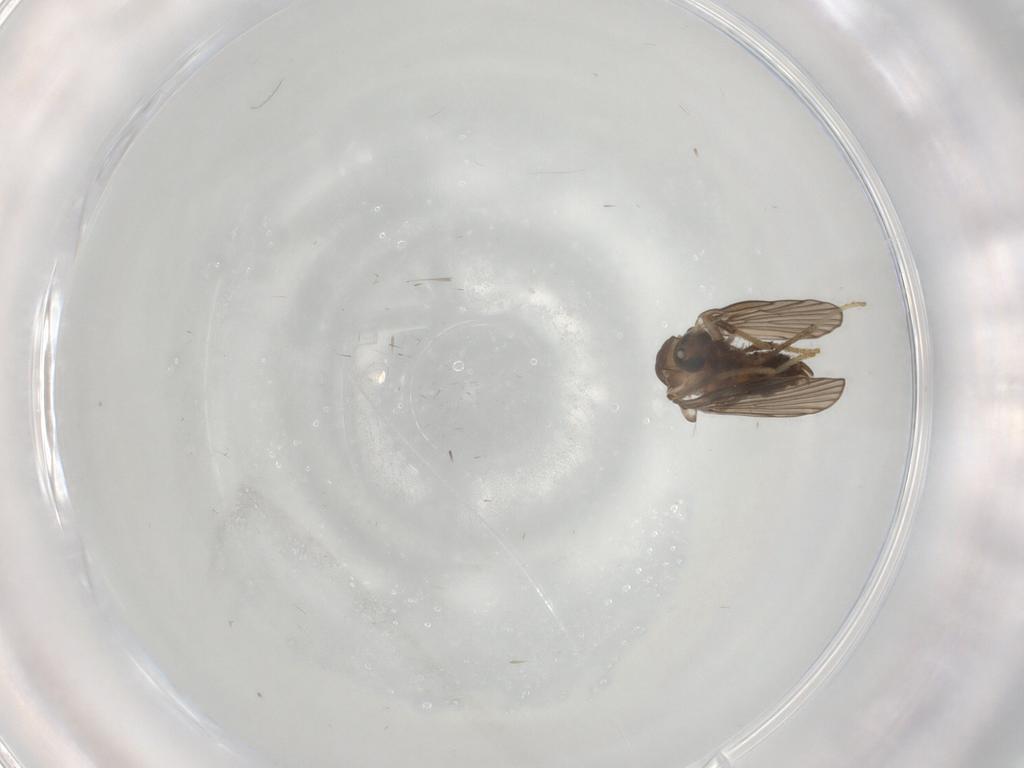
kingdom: Animalia
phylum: Arthropoda
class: Insecta
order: Diptera
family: Psychodidae
